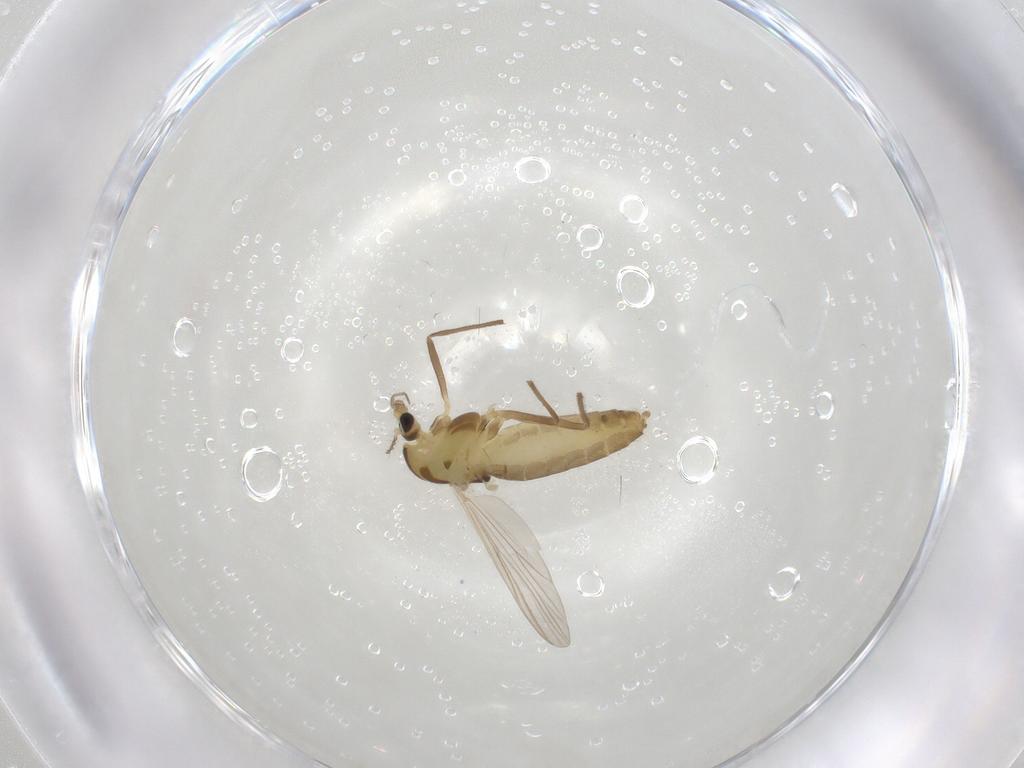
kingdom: Animalia
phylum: Arthropoda
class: Insecta
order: Diptera
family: Chironomidae
